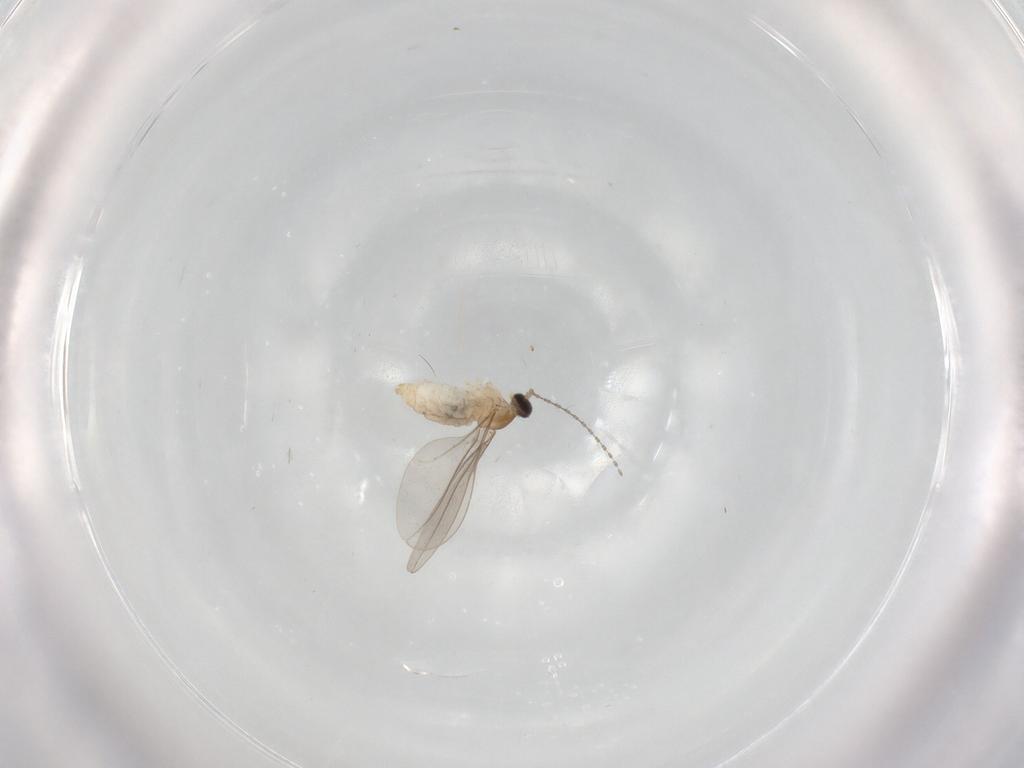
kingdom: Animalia
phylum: Arthropoda
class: Insecta
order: Diptera
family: Cecidomyiidae
